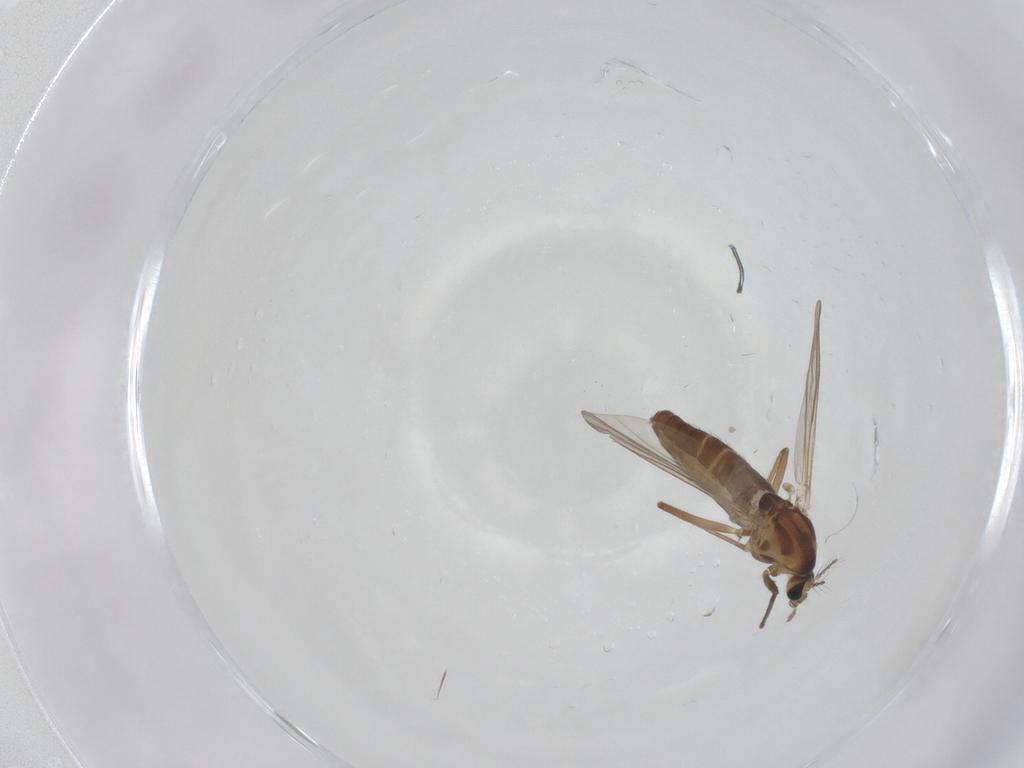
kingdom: Animalia
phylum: Arthropoda
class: Insecta
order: Diptera
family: Chironomidae
